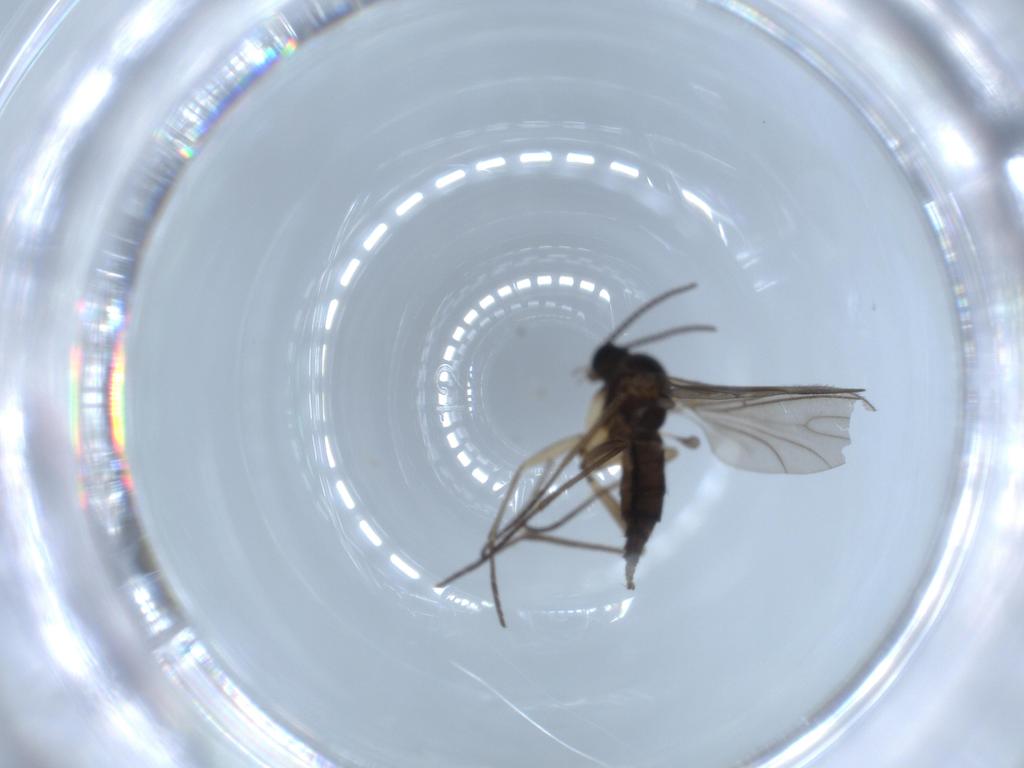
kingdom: Animalia
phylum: Arthropoda
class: Insecta
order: Diptera
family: Sciaridae
